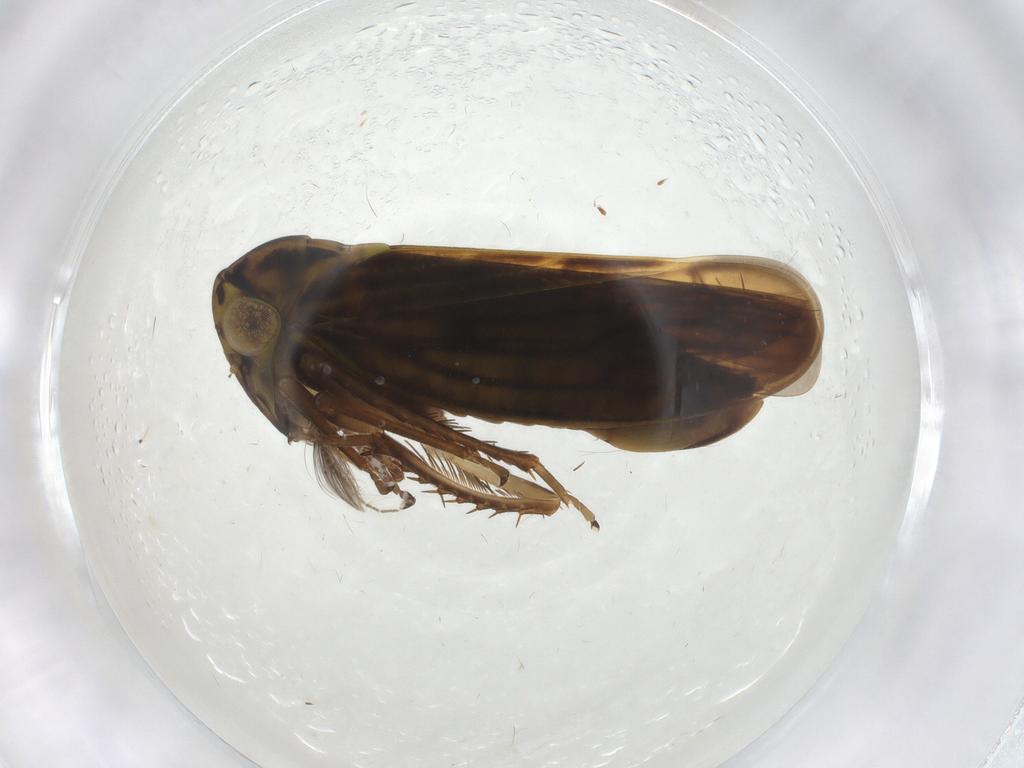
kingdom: Animalia
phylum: Arthropoda
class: Insecta
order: Hemiptera
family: Cicadellidae
